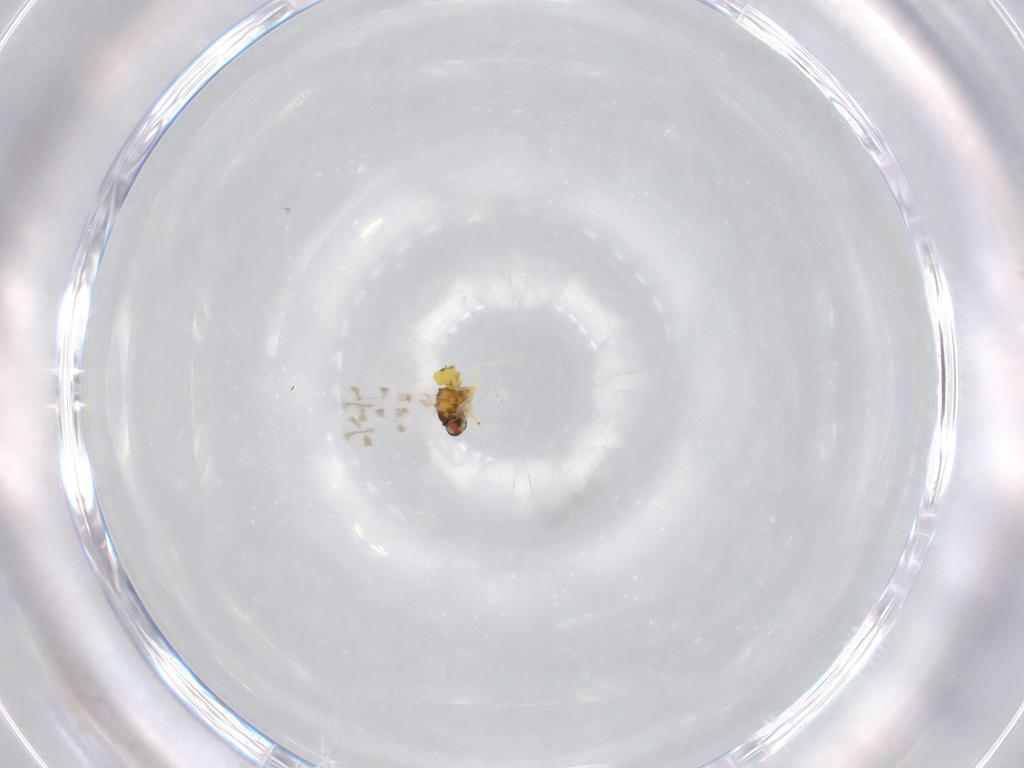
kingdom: Animalia
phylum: Arthropoda
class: Insecta
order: Hemiptera
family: Aleyrodidae
